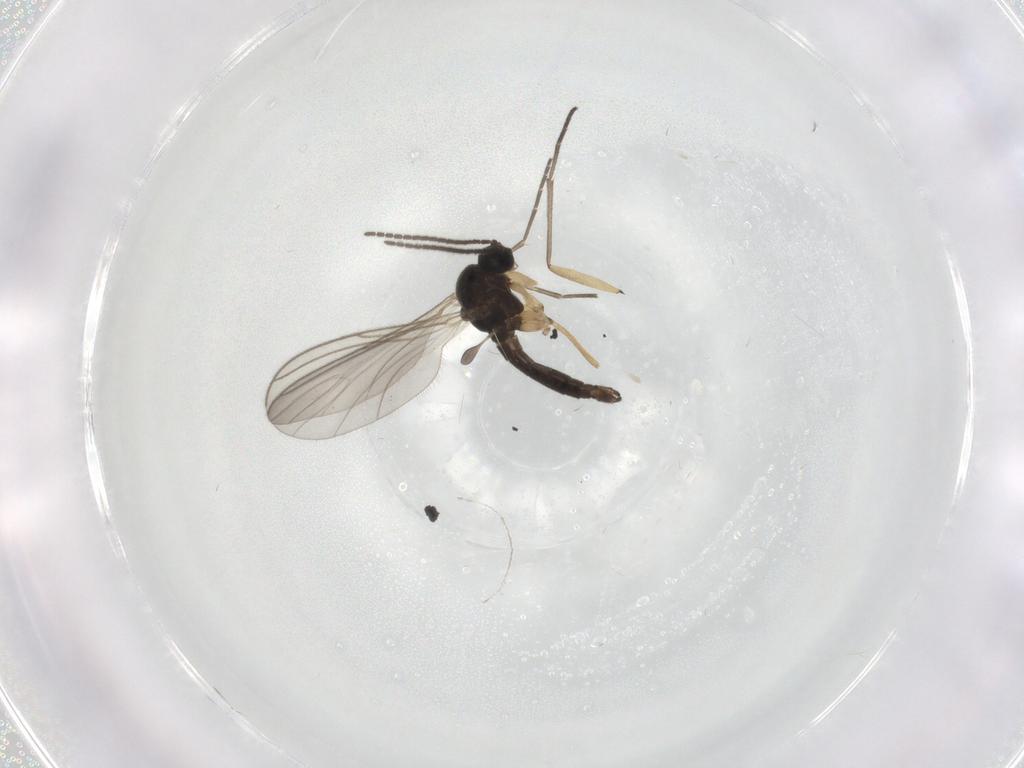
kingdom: Animalia
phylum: Arthropoda
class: Insecta
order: Diptera
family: Sciaridae
